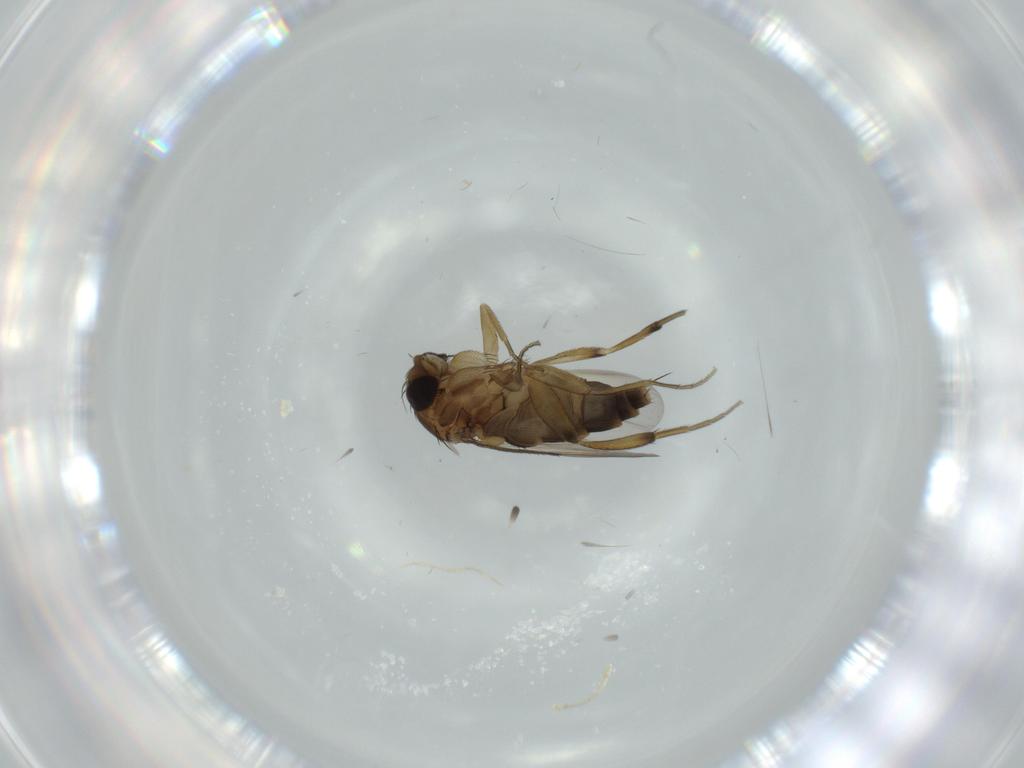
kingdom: Animalia
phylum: Arthropoda
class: Insecta
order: Diptera
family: Phoridae
